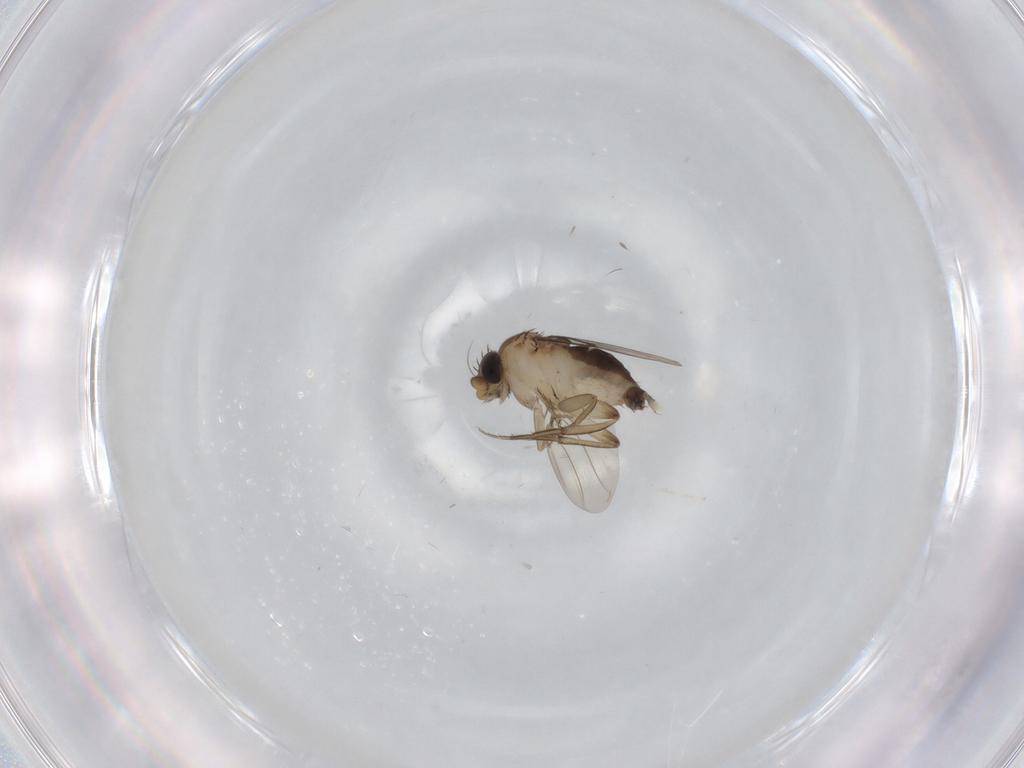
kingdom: Animalia
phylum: Arthropoda
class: Insecta
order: Diptera
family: Phoridae
